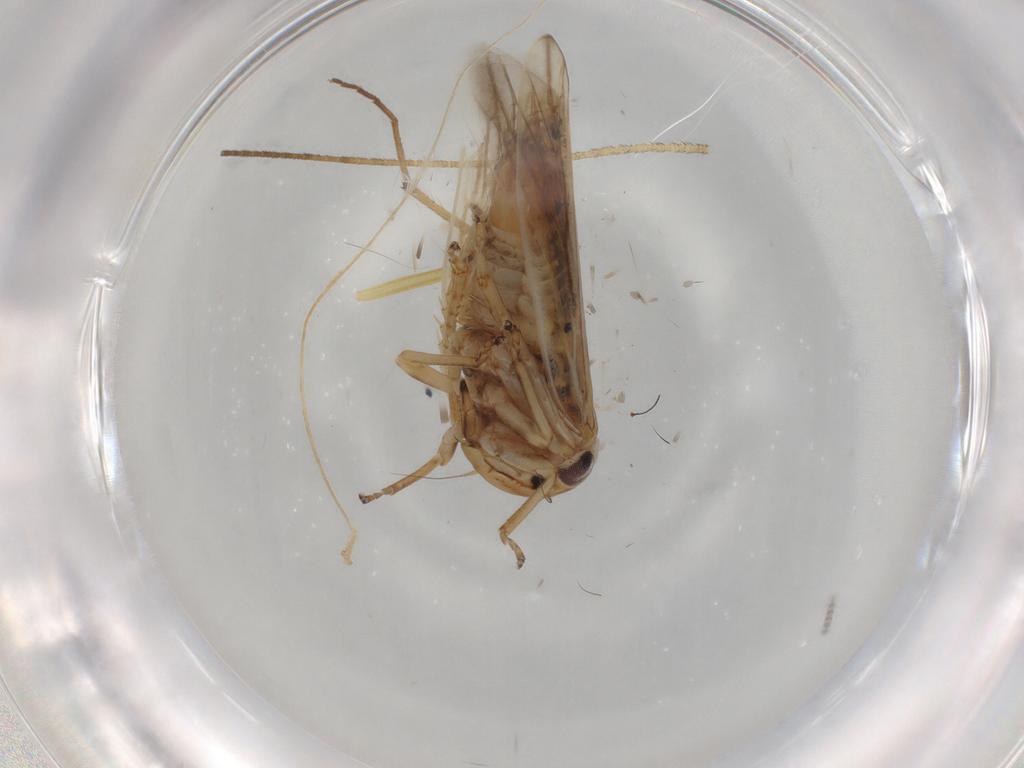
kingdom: Animalia
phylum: Arthropoda
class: Insecta
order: Hemiptera
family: Cicadellidae
